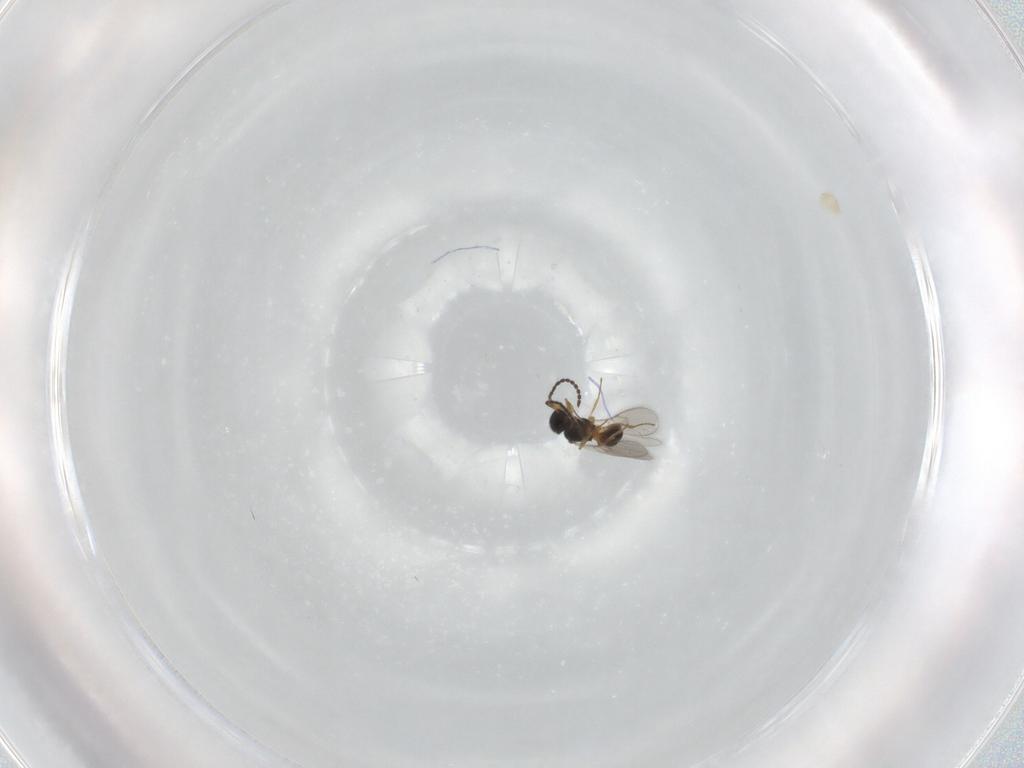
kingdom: Animalia
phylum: Arthropoda
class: Insecta
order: Hymenoptera
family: Scelionidae
